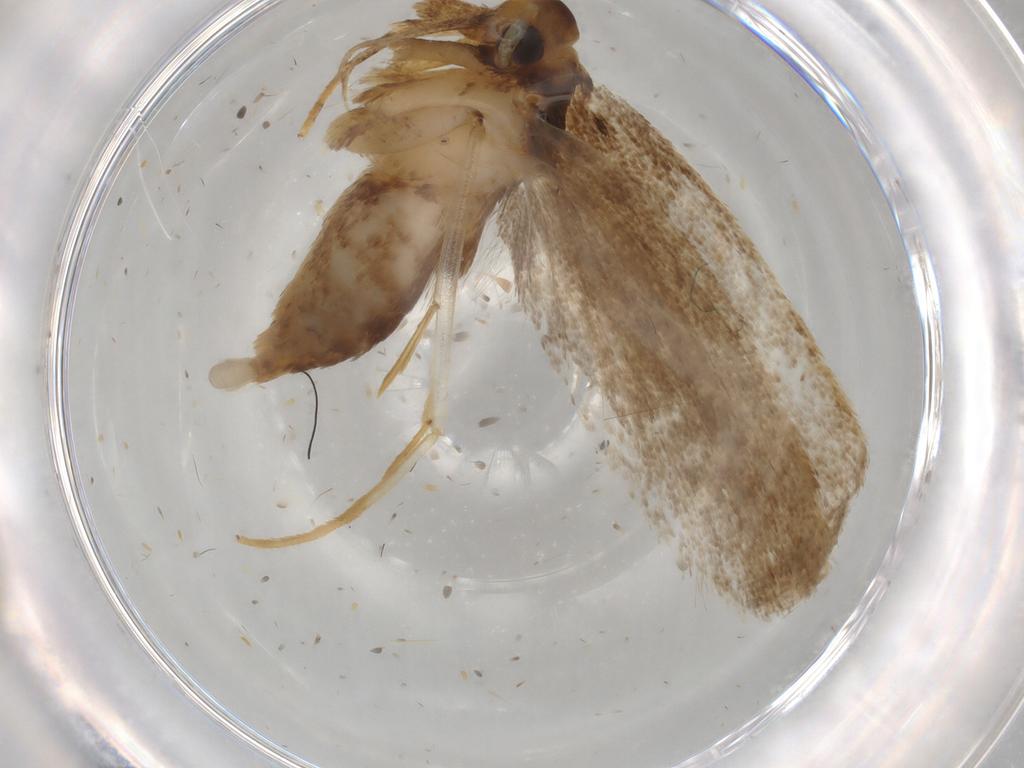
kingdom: Animalia
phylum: Arthropoda
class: Insecta
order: Lepidoptera
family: Lecithoceridae
